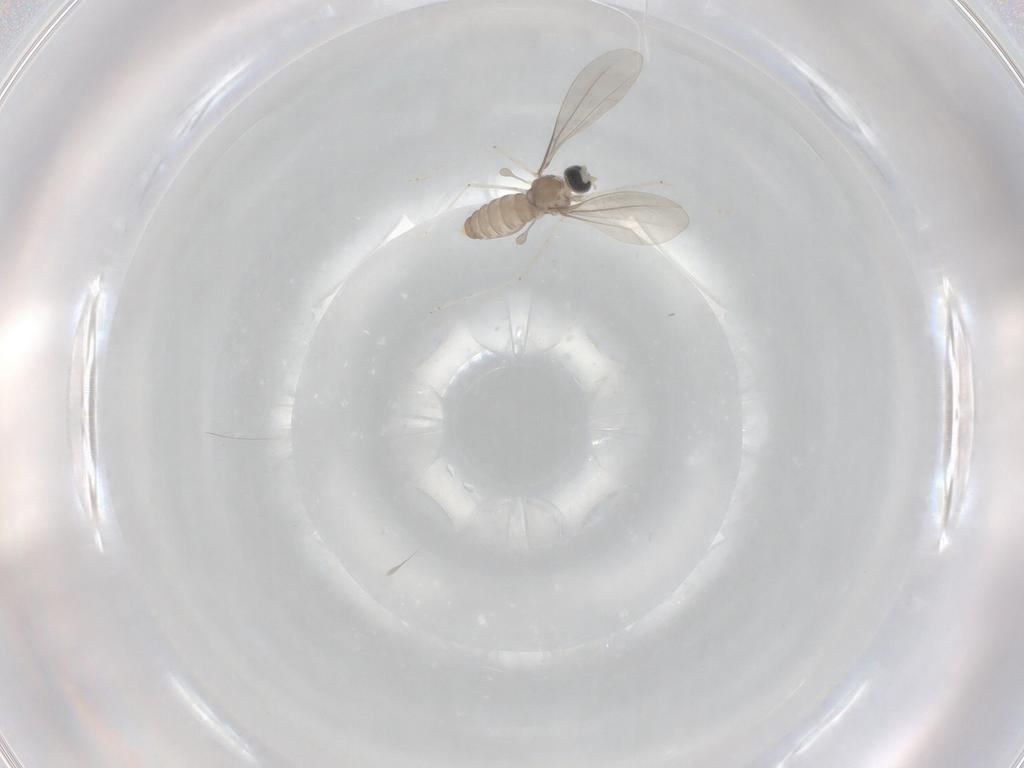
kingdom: Animalia
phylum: Arthropoda
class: Insecta
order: Diptera
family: Cecidomyiidae
